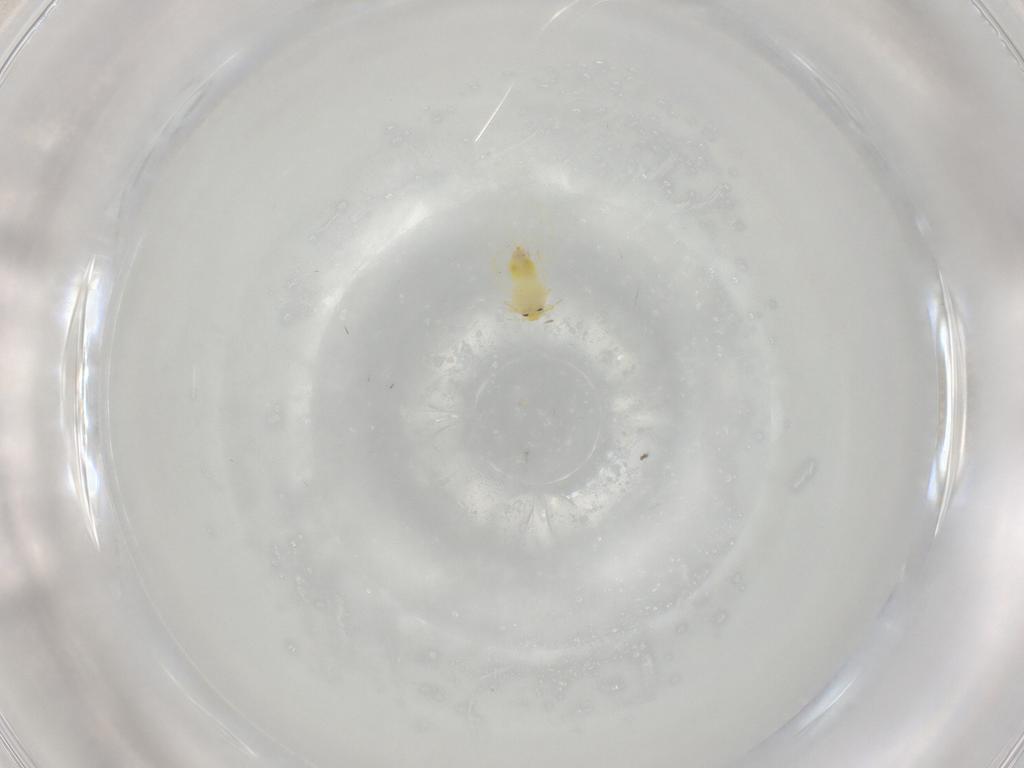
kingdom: Animalia
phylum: Arthropoda
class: Insecta
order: Hemiptera
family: Aleyrodidae
